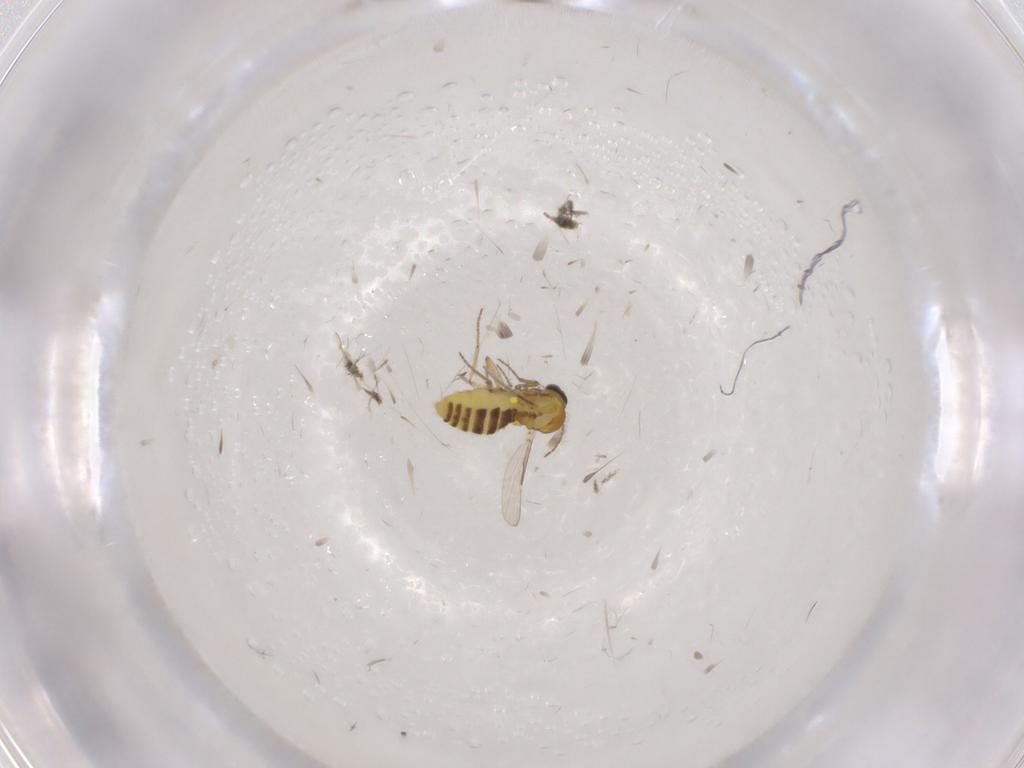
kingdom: Animalia
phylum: Arthropoda
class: Insecta
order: Diptera
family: Cecidomyiidae
